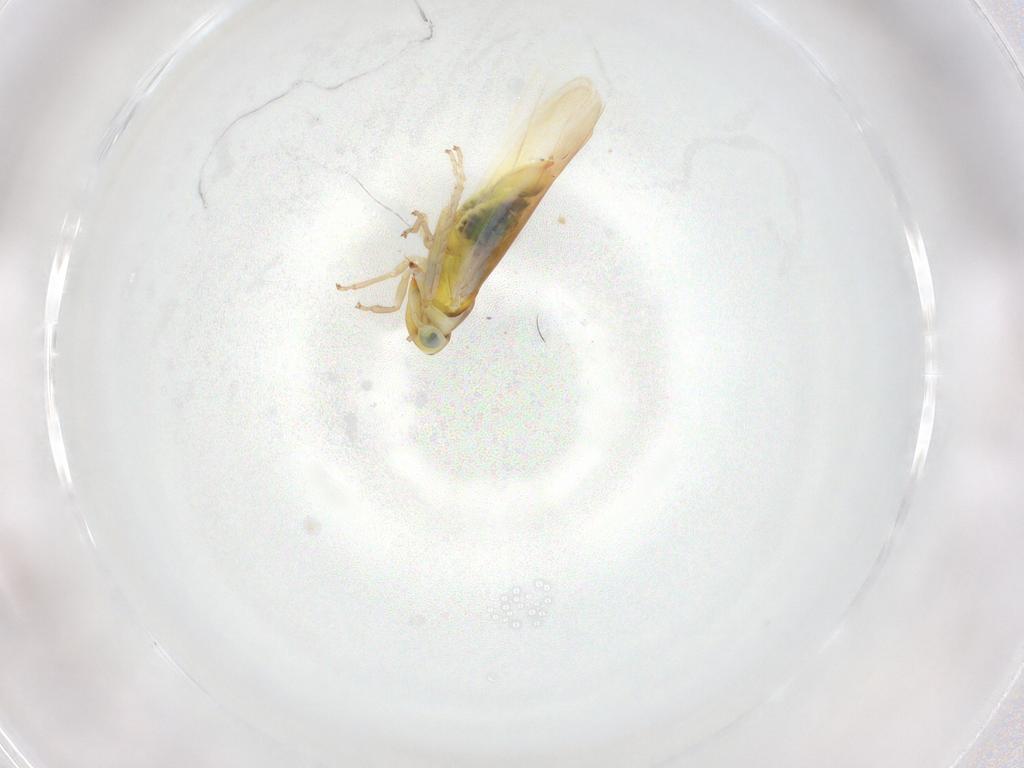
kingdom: Animalia
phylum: Arthropoda
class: Insecta
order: Hemiptera
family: Cicadellidae
